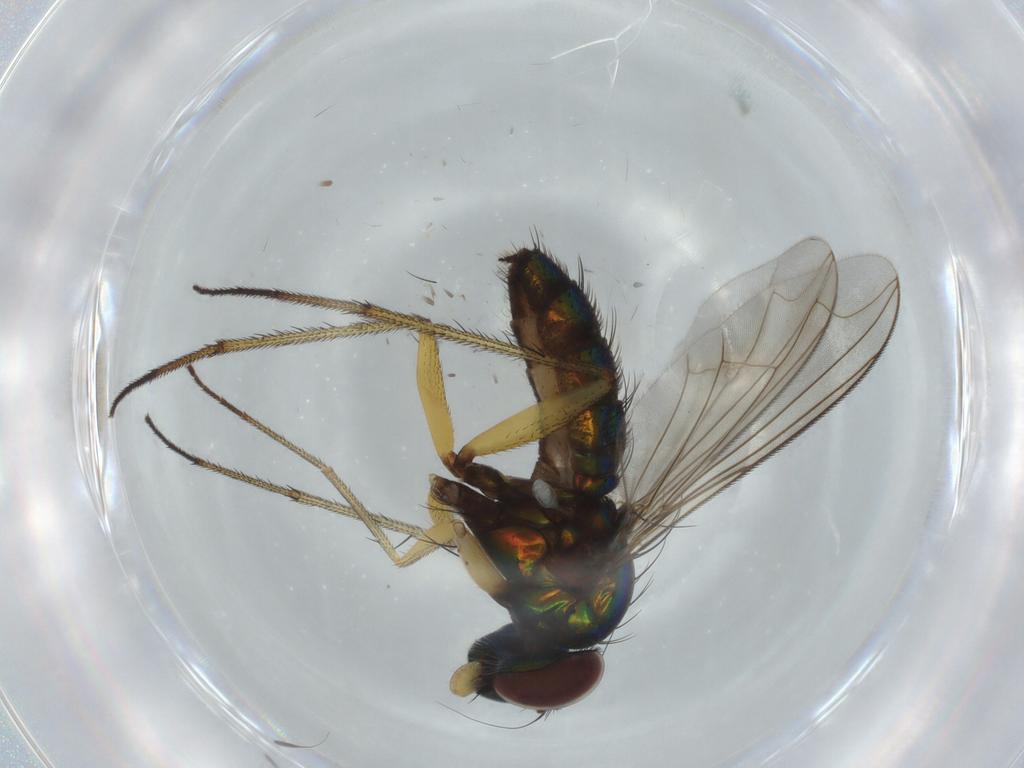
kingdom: Animalia
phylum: Arthropoda
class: Insecta
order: Diptera
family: Dolichopodidae
